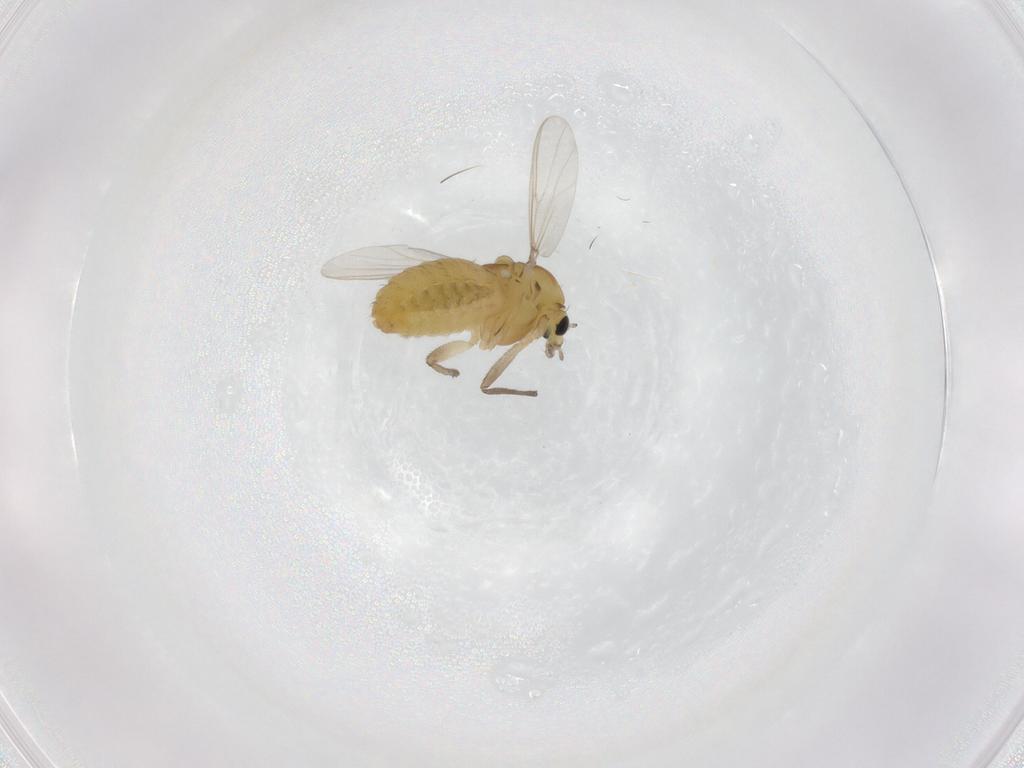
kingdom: Animalia
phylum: Arthropoda
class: Insecta
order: Diptera
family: Chironomidae
